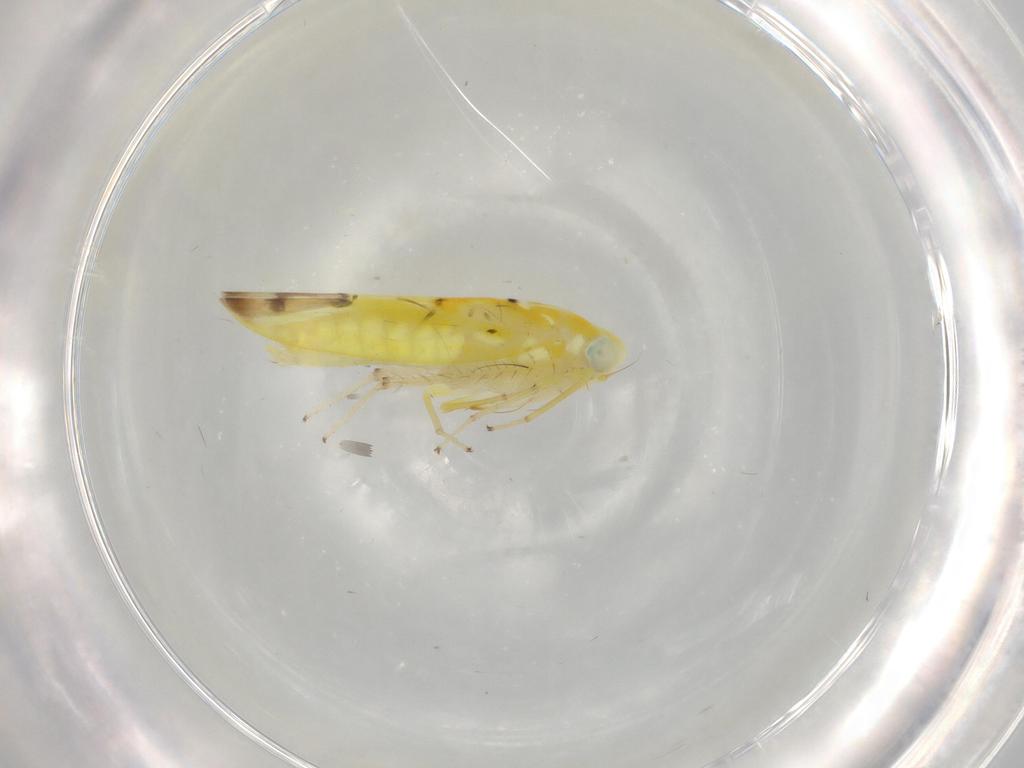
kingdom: Animalia
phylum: Arthropoda
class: Insecta
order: Hemiptera
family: Cicadellidae
